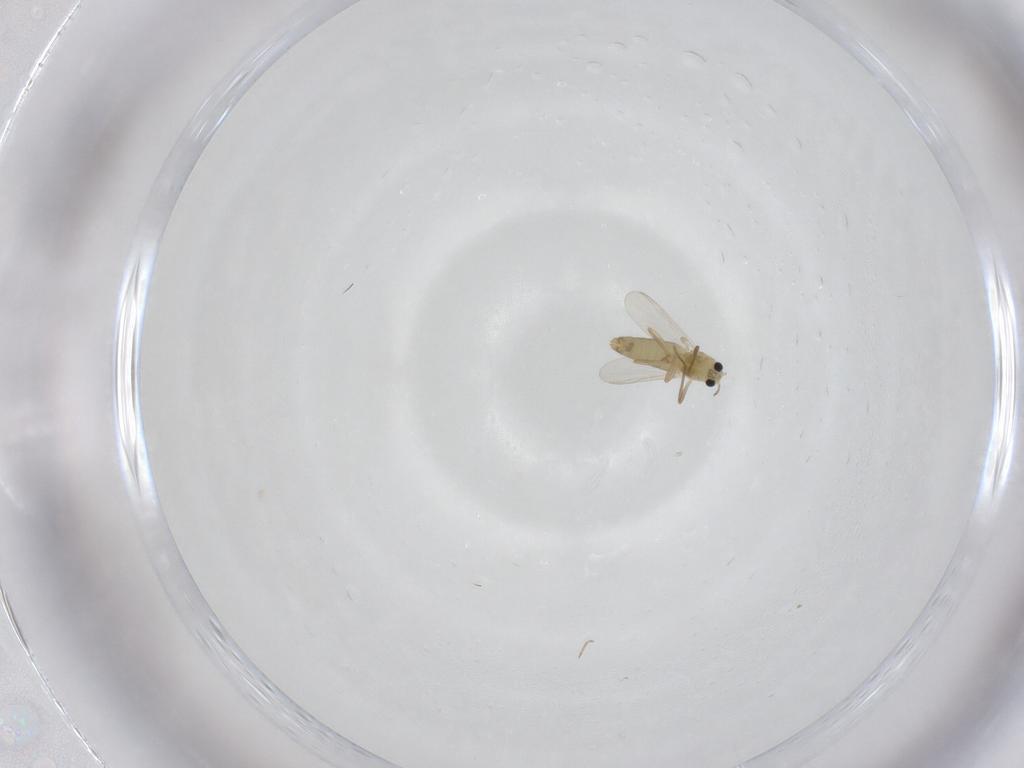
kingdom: Animalia
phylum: Arthropoda
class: Insecta
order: Diptera
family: Chironomidae
